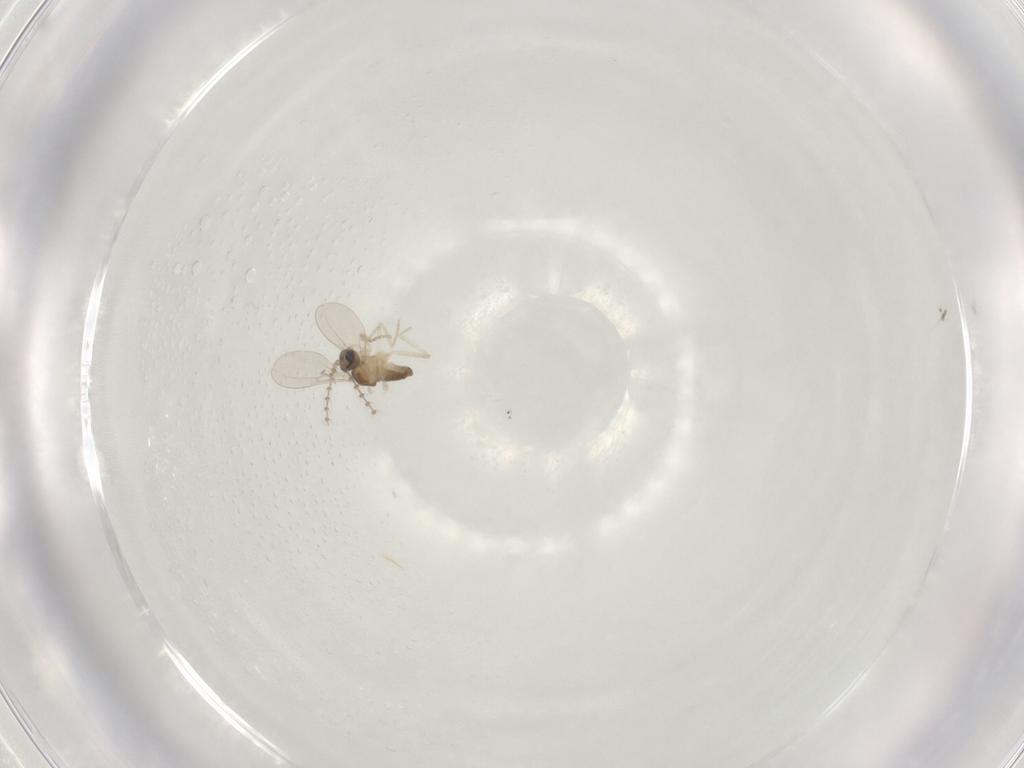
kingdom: Animalia
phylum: Arthropoda
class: Insecta
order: Diptera
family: Cecidomyiidae
